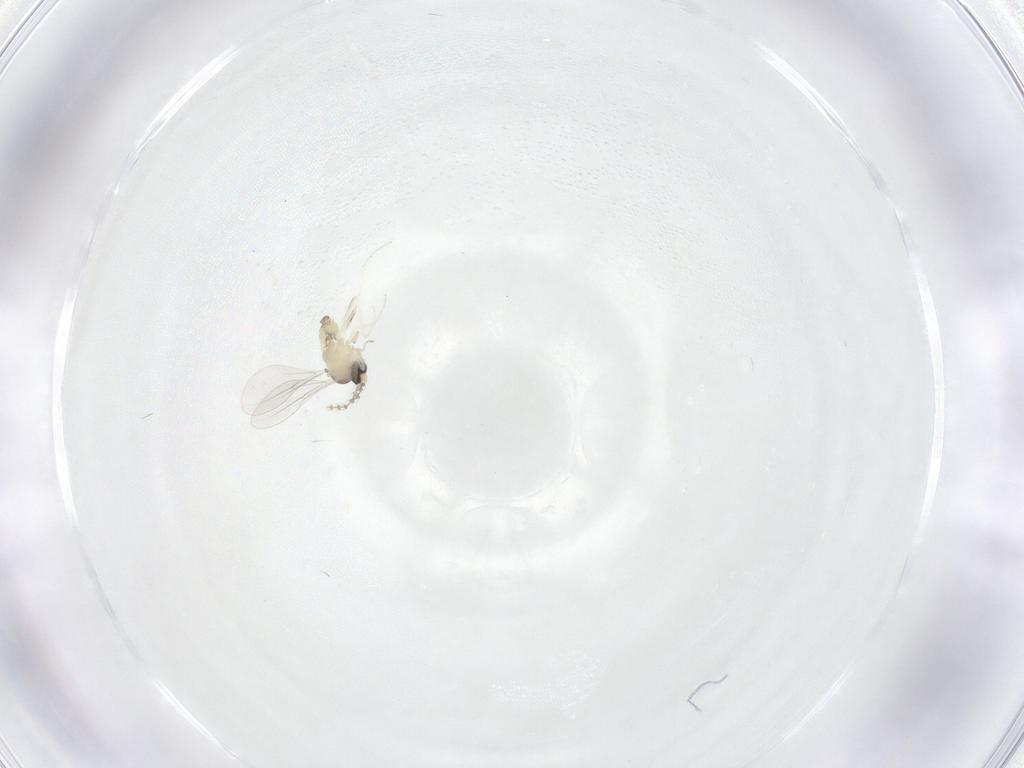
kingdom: Animalia
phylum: Arthropoda
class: Insecta
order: Diptera
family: Cecidomyiidae
